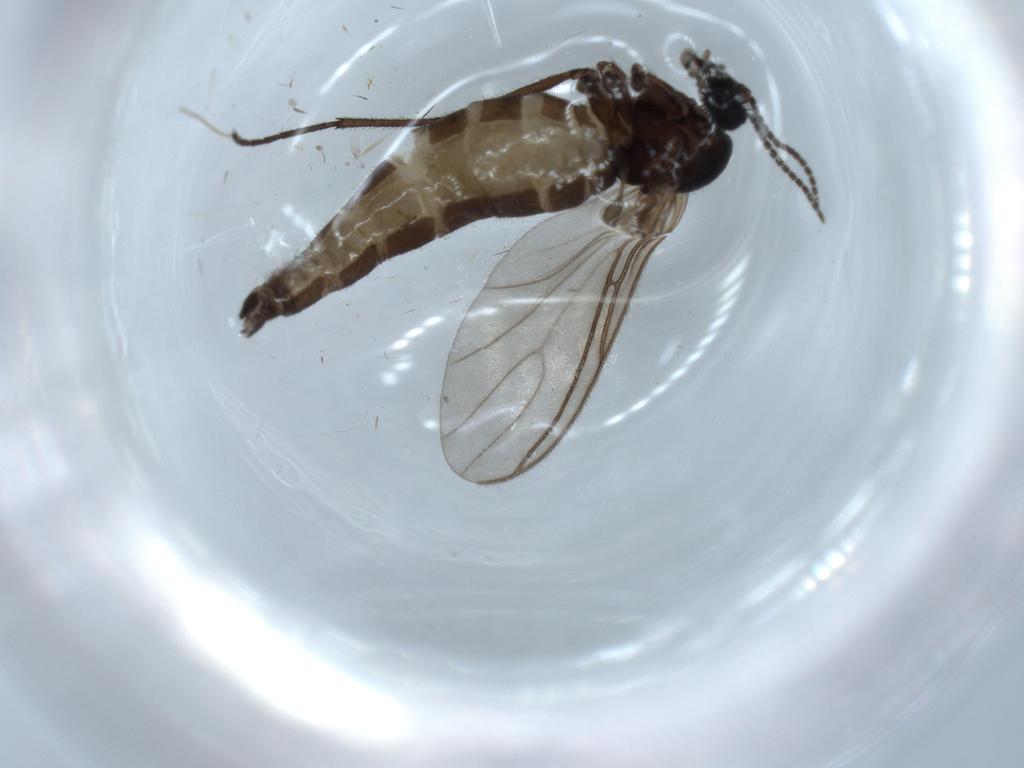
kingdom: Animalia
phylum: Arthropoda
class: Insecta
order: Diptera
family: Sciaridae
